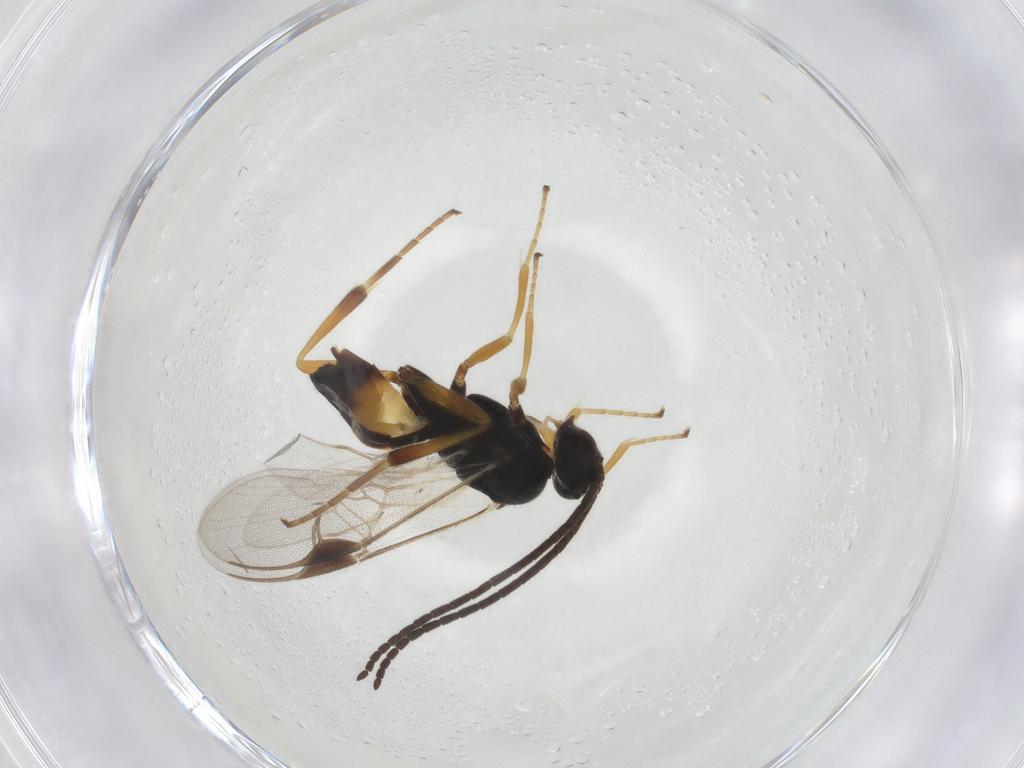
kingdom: Animalia
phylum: Arthropoda
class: Insecta
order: Hymenoptera
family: Braconidae
